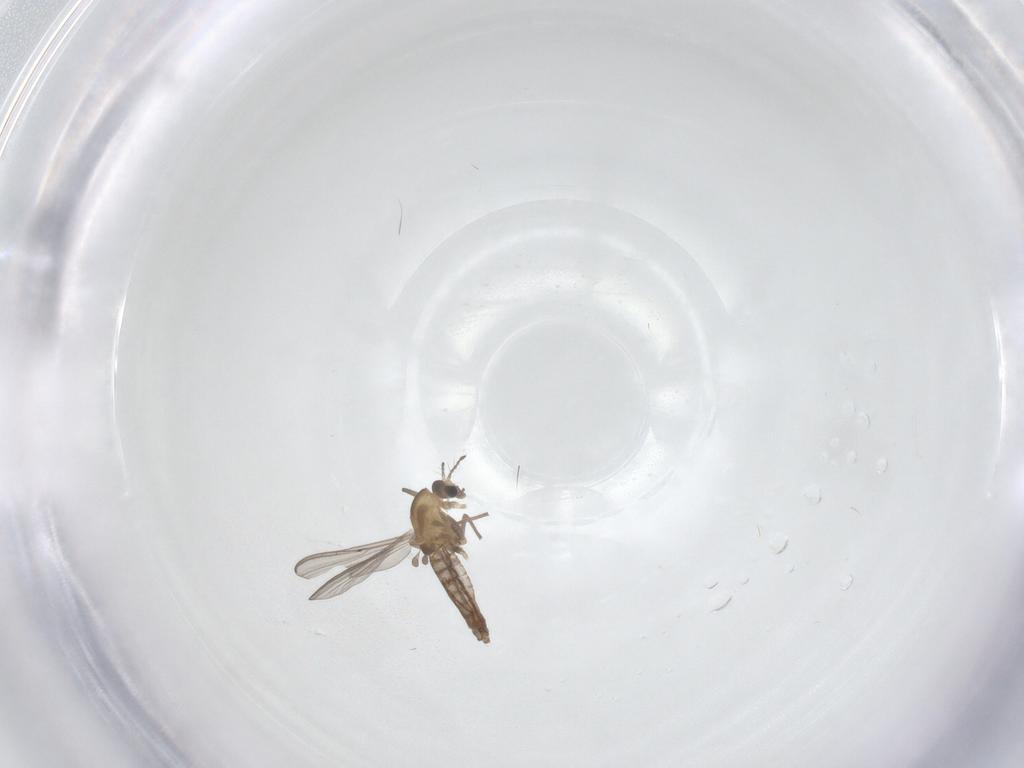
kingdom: Animalia
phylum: Arthropoda
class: Insecta
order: Diptera
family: Chironomidae
